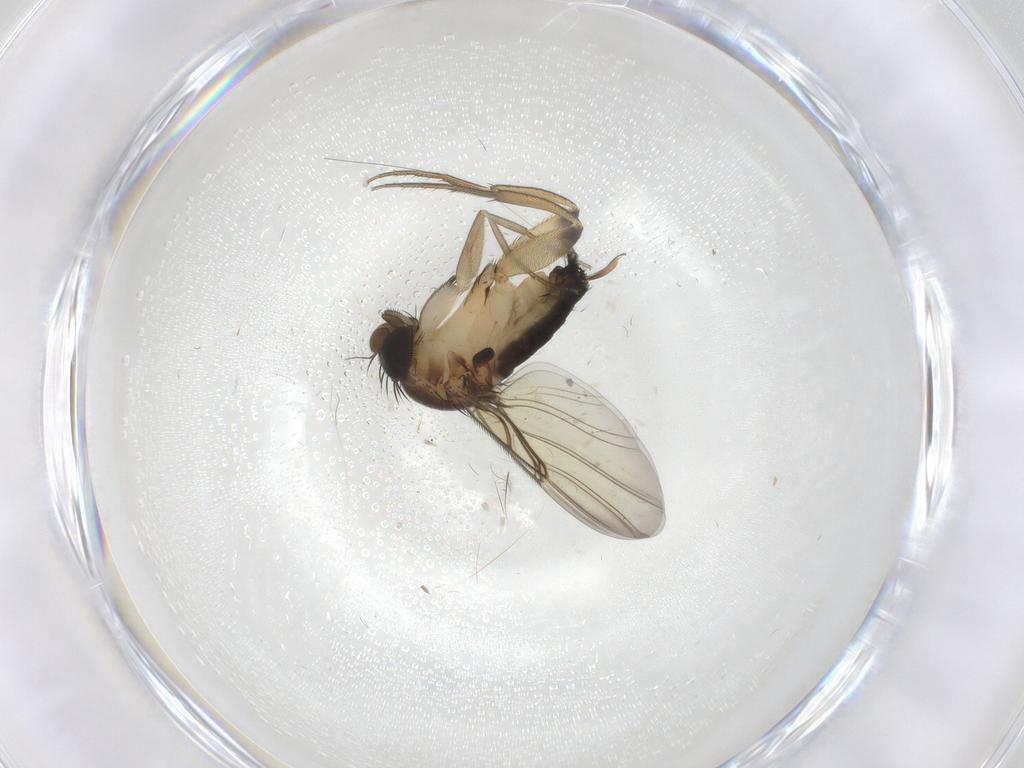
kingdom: Animalia
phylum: Arthropoda
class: Insecta
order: Diptera
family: Phoridae
